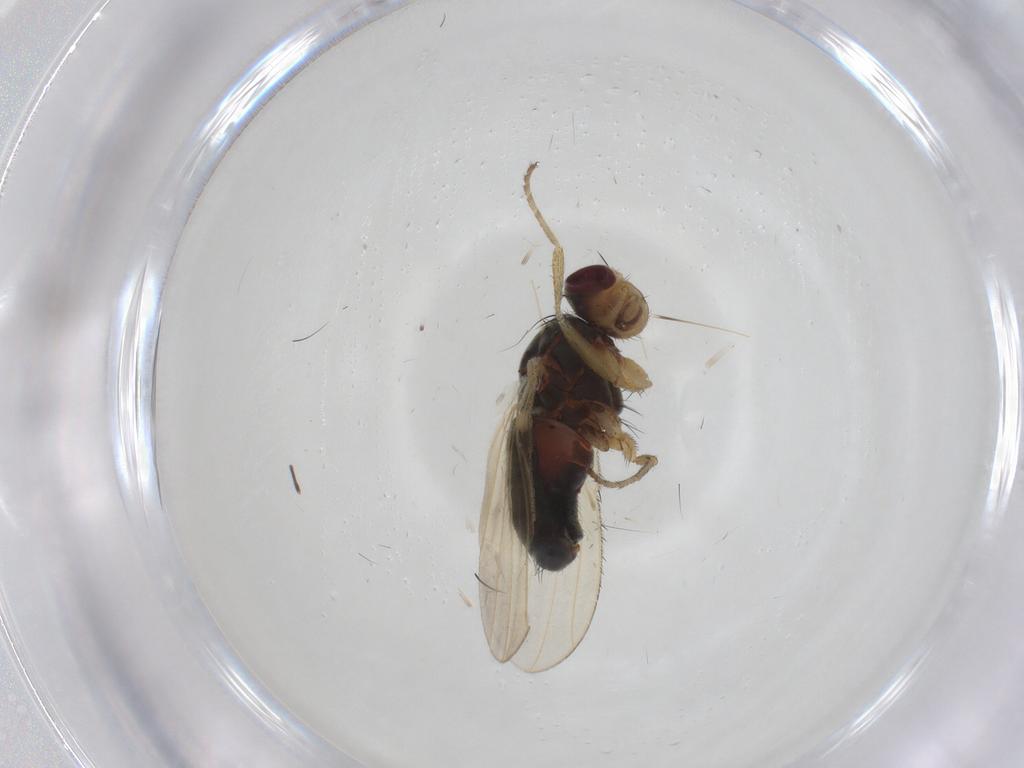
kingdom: Animalia
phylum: Arthropoda
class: Insecta
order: Diptera
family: Heleomyzidae
